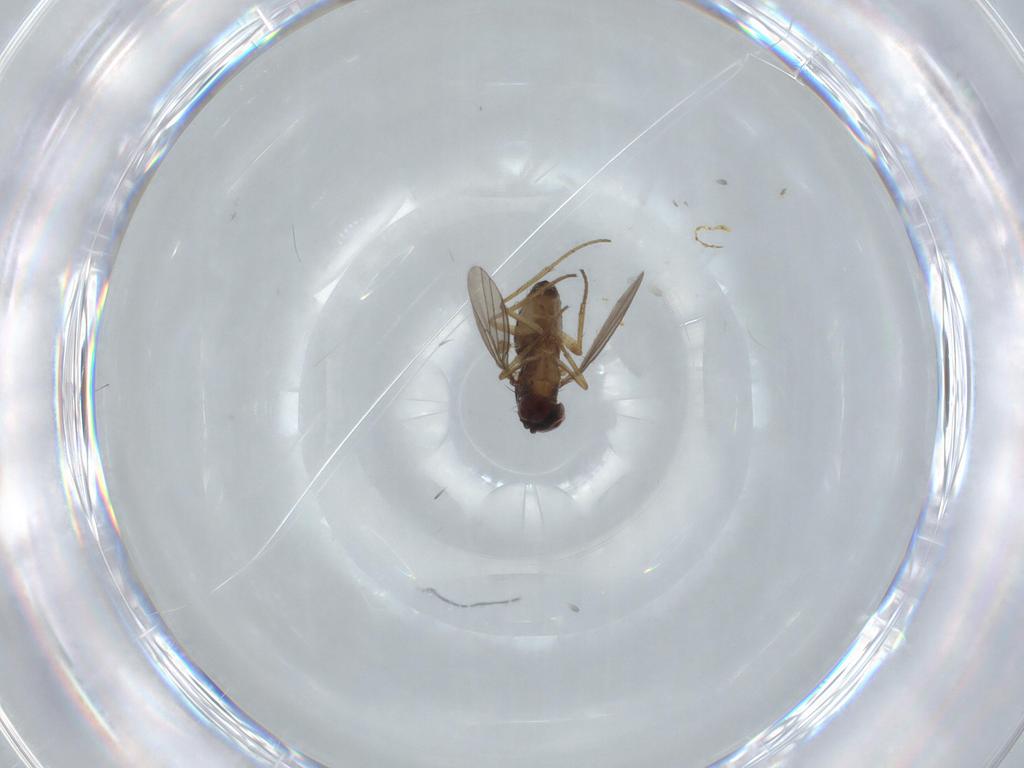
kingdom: Animalia
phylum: Arthropoda
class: Insecta
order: Diptera
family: Dolichopodidae
